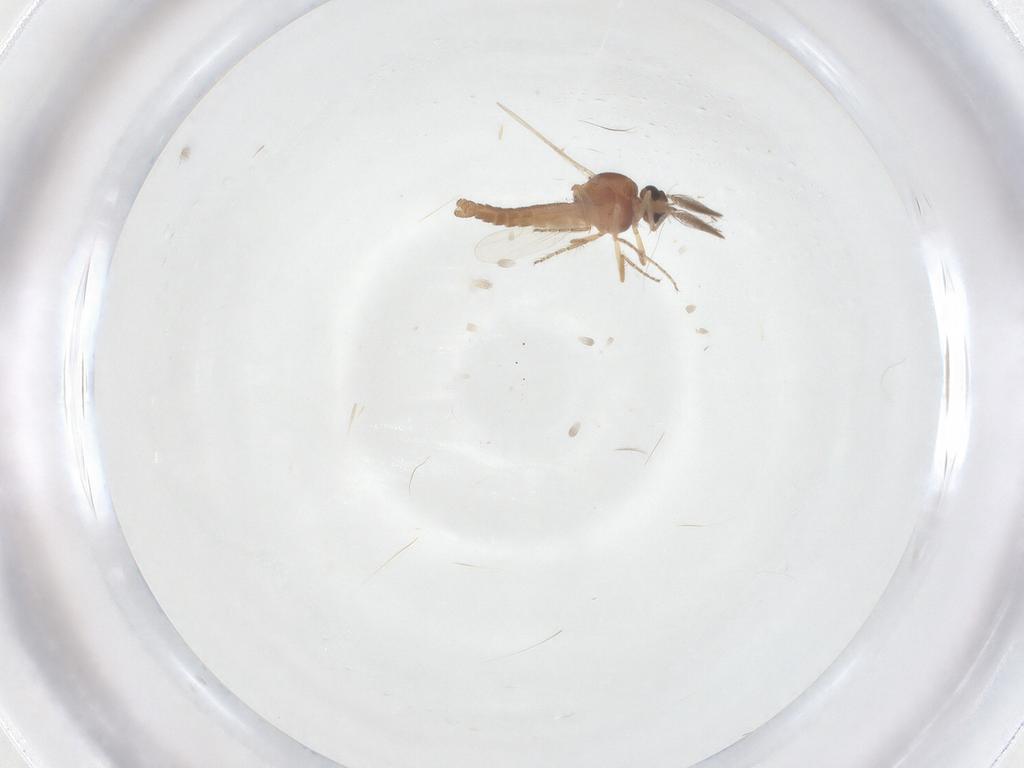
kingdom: Animalia
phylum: Arthropoda
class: Insecta
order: Diptera
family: Ceratopogonidae
